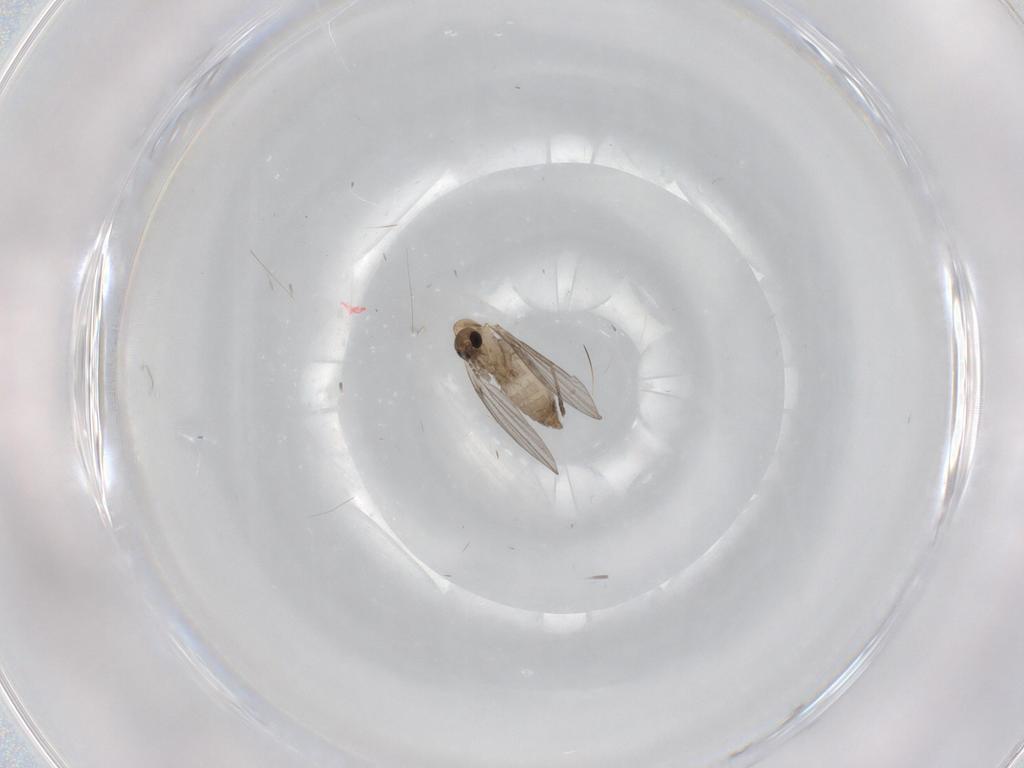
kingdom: Animalia
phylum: Arthropoda
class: Insecta
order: Diptera
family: Psychodidae
